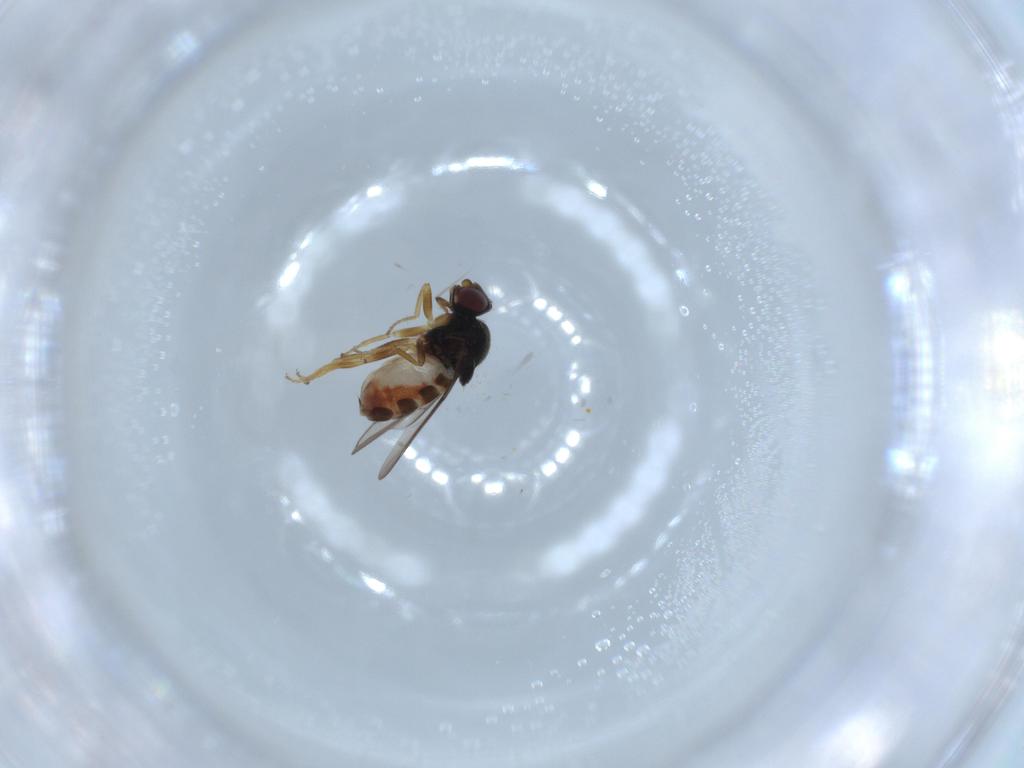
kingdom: Animalia
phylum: Arthropoda
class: Insecta
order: Diptera
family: Chloropidae
